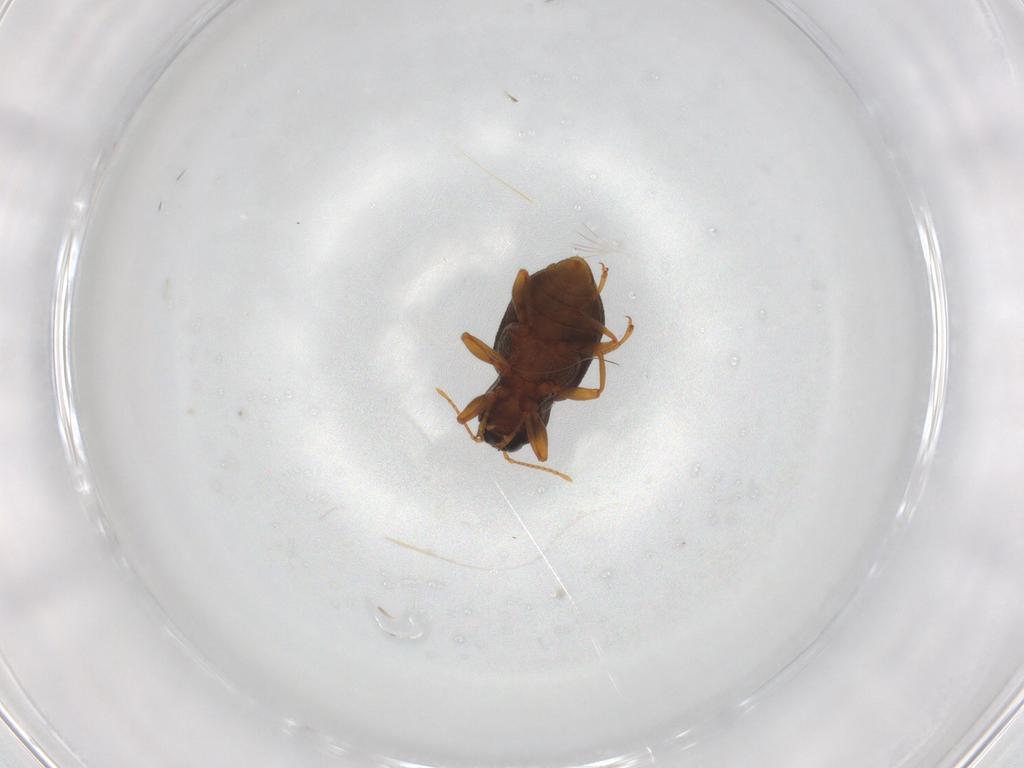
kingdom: Animalia
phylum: Arthropoda
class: Insecta
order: Coleoptera
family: Elmidae
